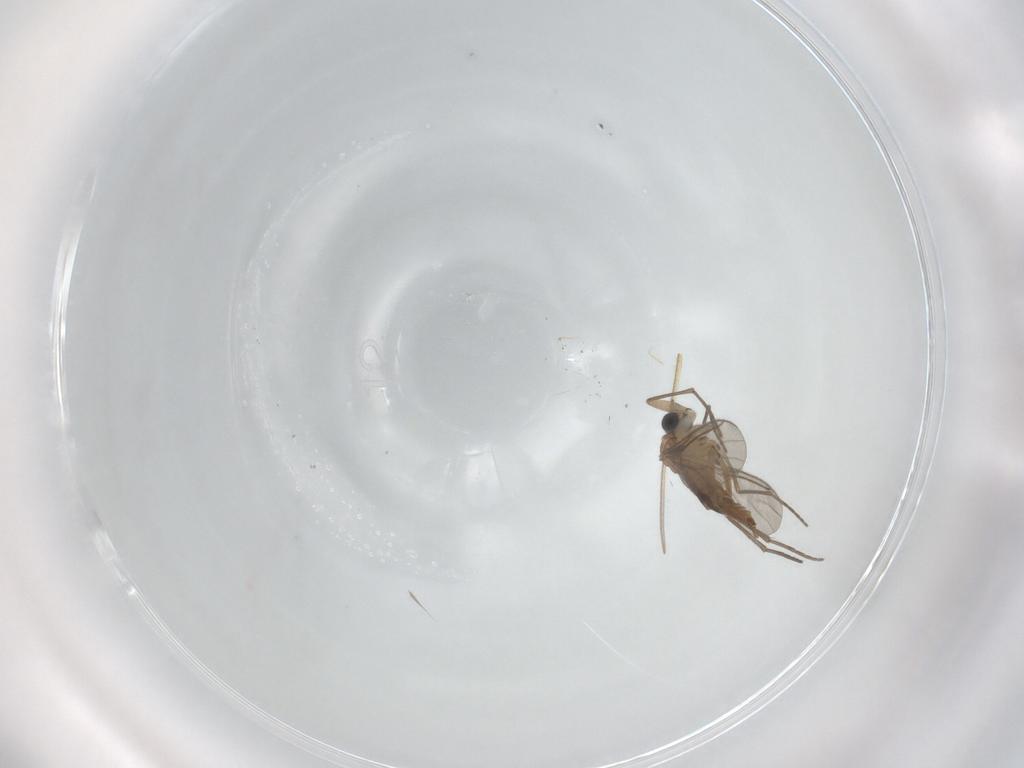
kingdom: Animalia
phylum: Arthropoda
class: Insecta
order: Diptera
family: Sciaridae
